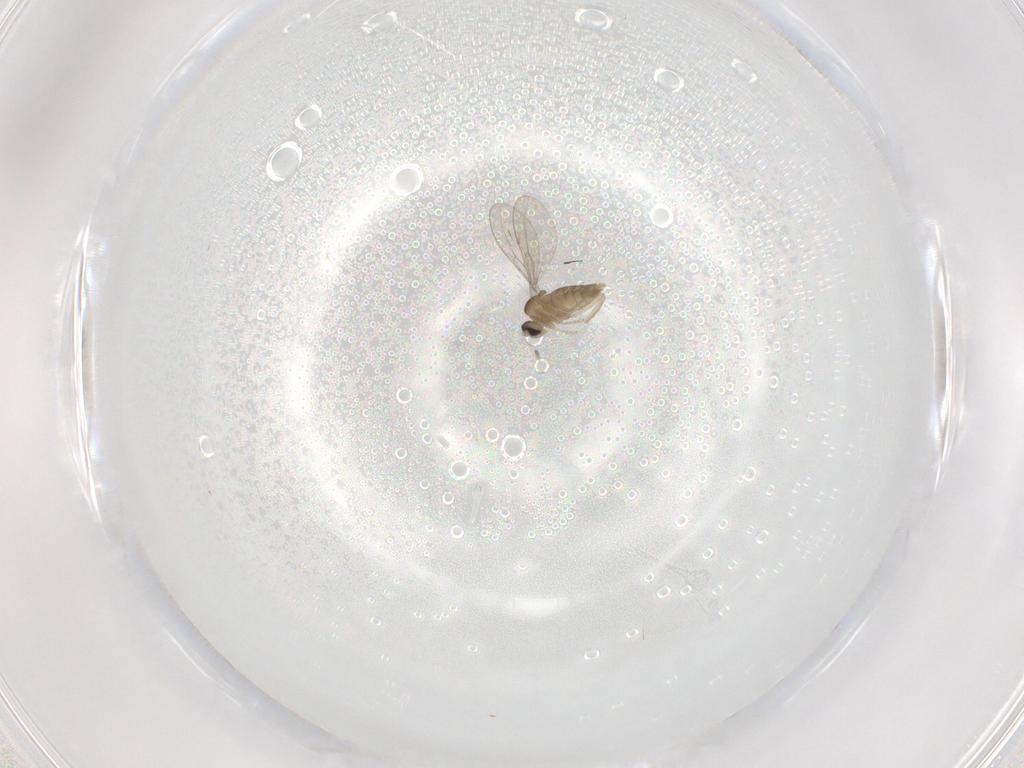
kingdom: Animalia
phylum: Arthropoda
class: Insecta
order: Diptera
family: Cecidomyiidae
